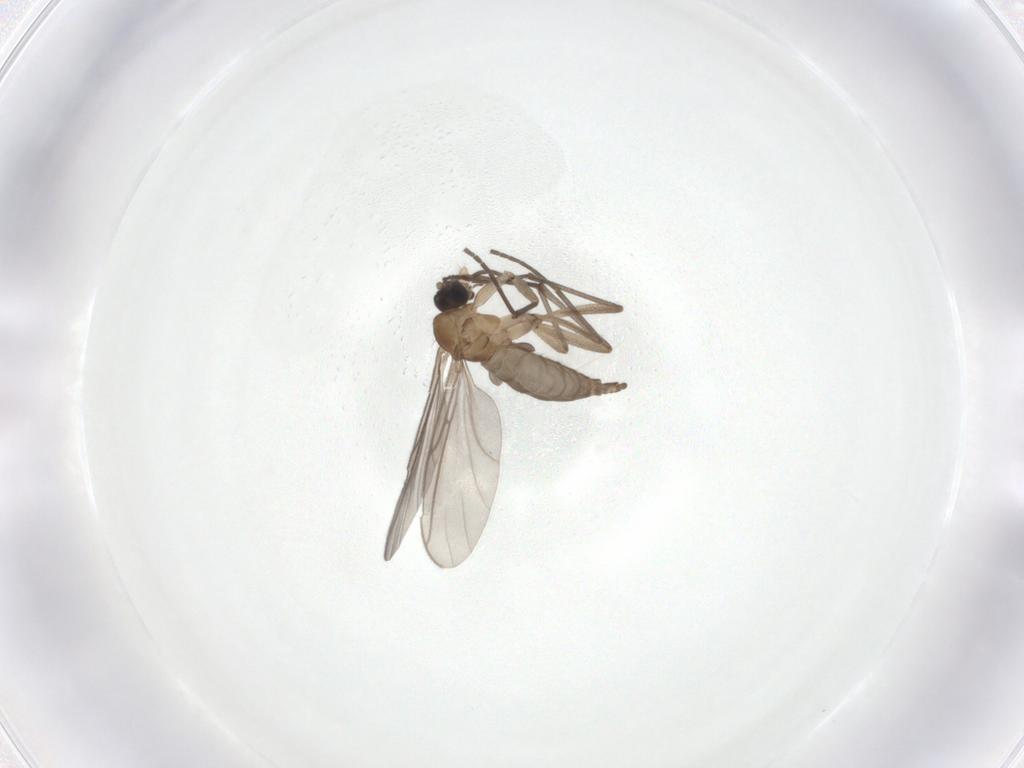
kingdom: Animalia
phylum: Arthropoda
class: Insecta
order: Diptera
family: Sciaridae
